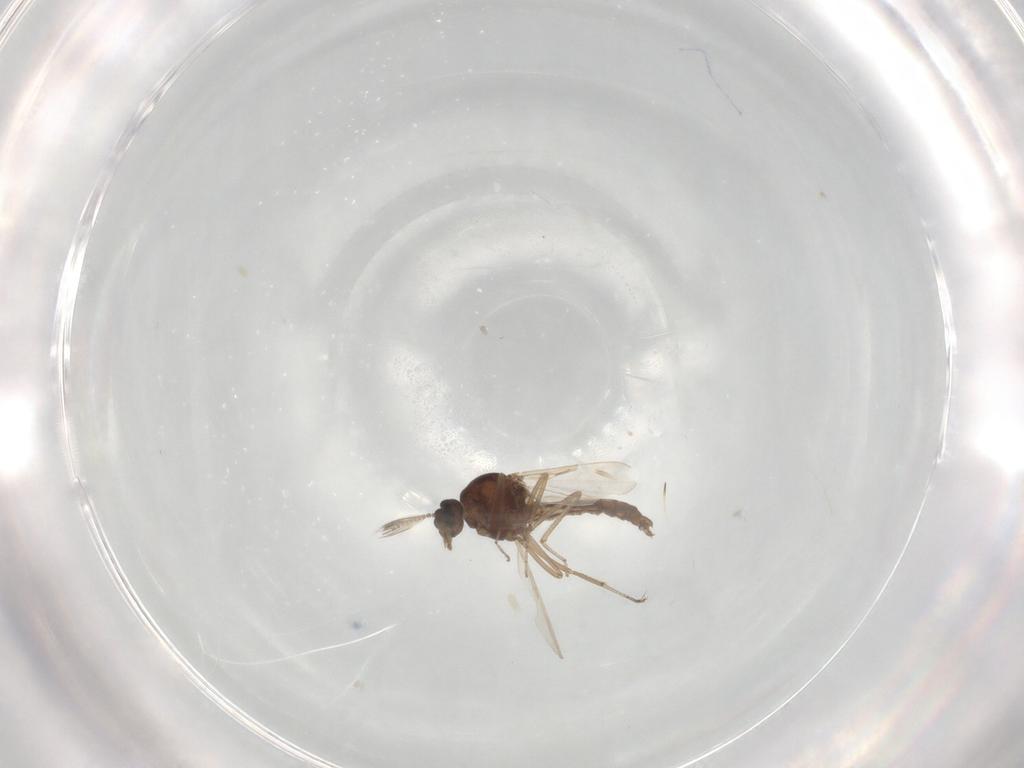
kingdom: Animalia
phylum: Arthropoda
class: Insecta
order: Diptera
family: Ceratopogonidae
